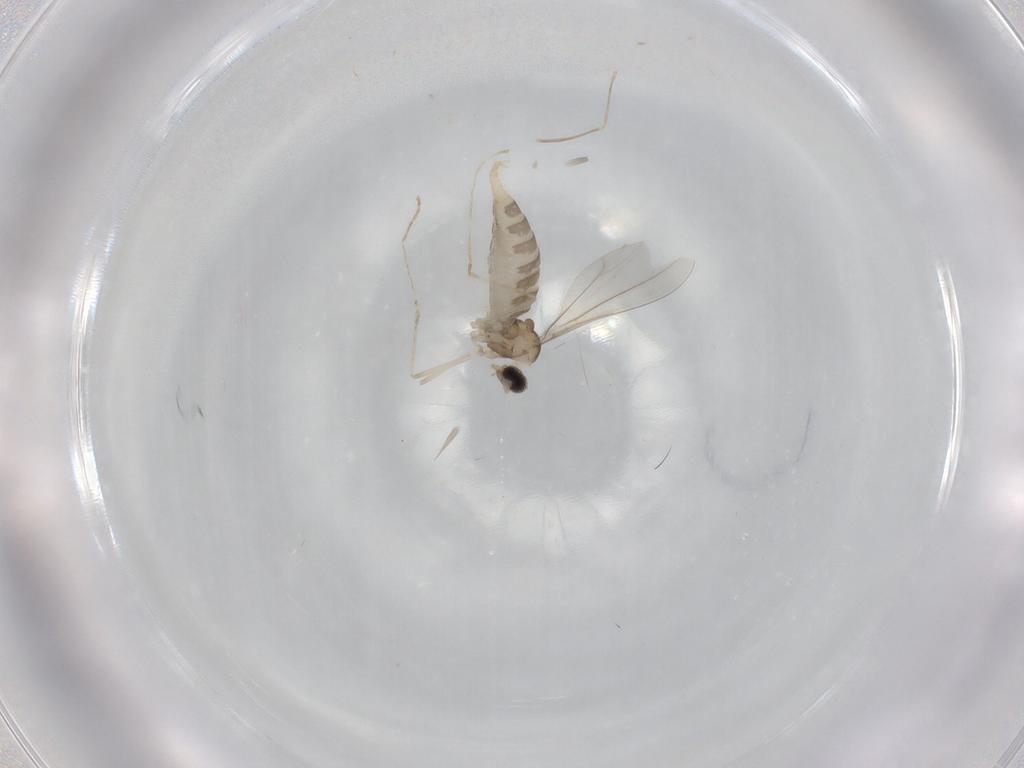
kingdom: Animalia
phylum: Arthropoda
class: Insecta
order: Diptera
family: Cecidomyiidae
